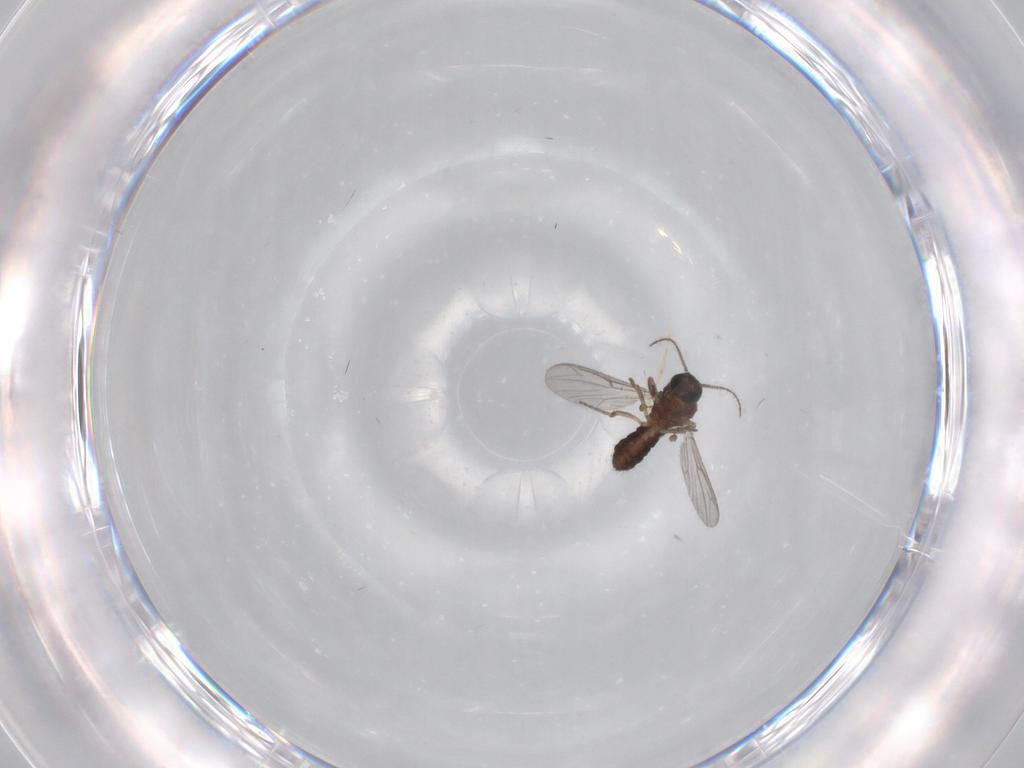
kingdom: Animalia
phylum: Arthropoda
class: Insecta
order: Diptera
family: Ceratopogonidae
